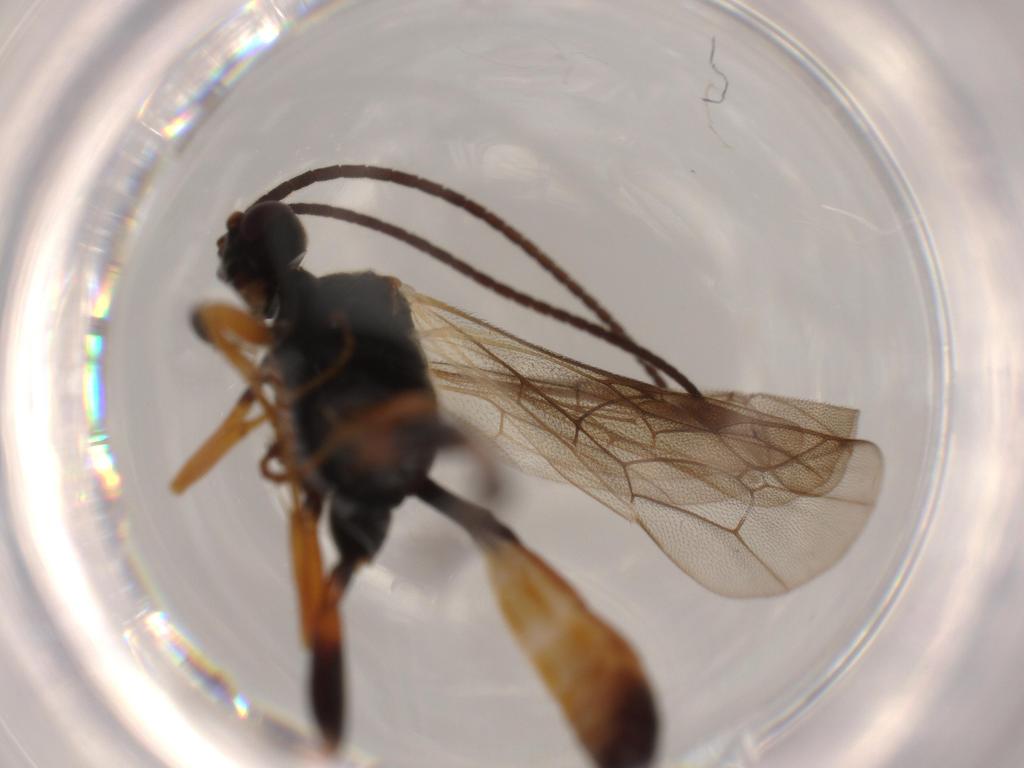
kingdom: Animalia
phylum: Arthropoda
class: Insecta
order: Hymenoptera
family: Ichneumonidae
